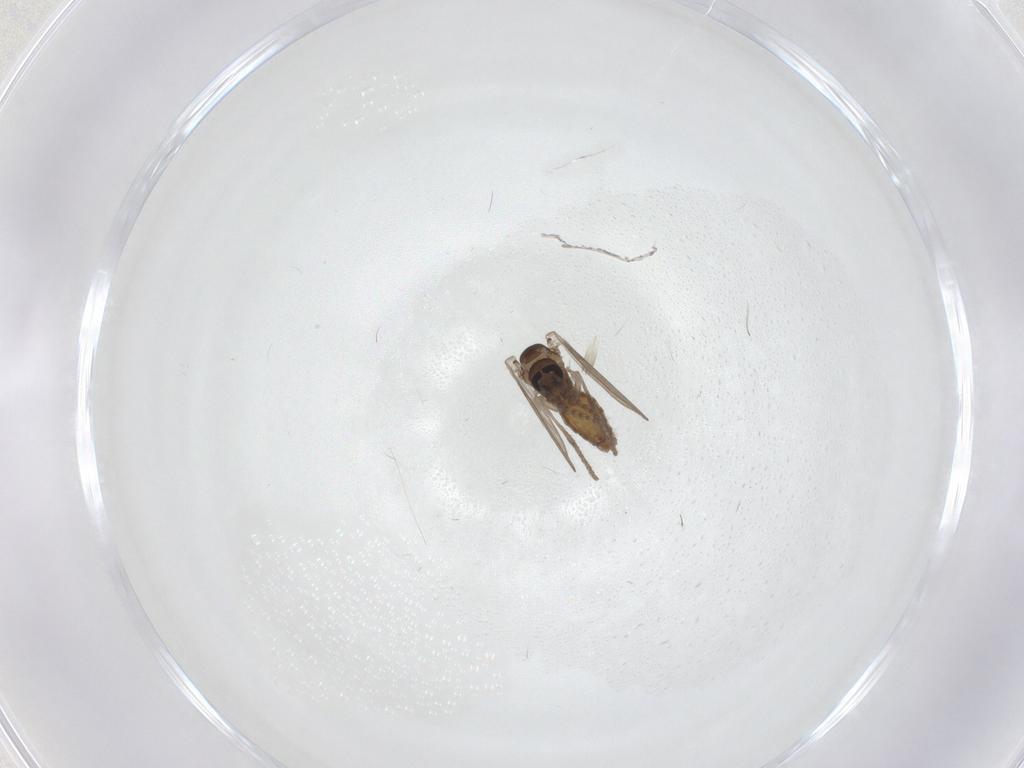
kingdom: Animalia
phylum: Arthropoda
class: Insecta
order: Diptera
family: Psychodidae
